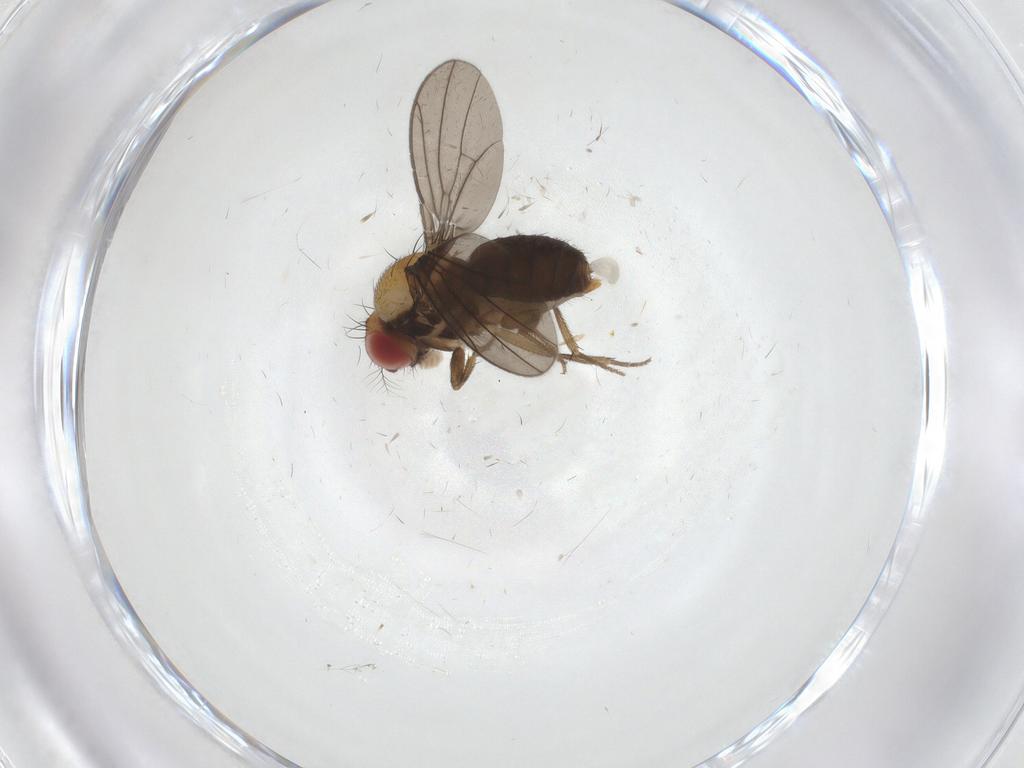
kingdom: Animalia
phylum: Arthropoda
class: Insecta
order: Diptera
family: Drosophilidae
